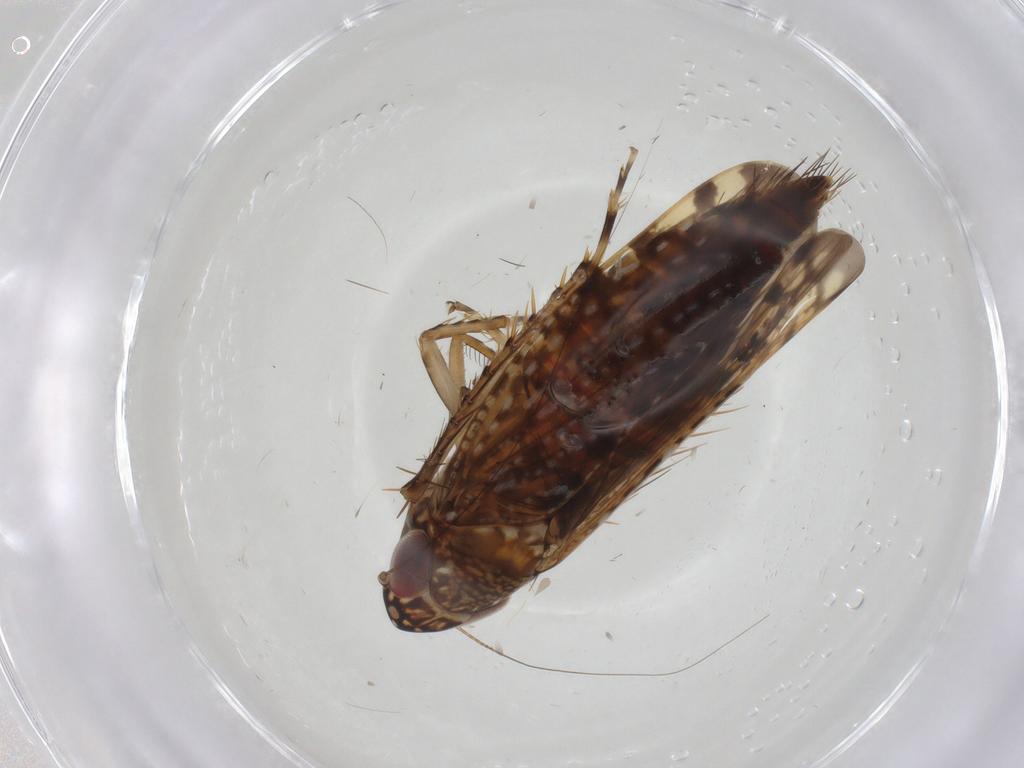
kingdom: Animalia
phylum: Arthropoda
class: Insecta
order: Hemiptera
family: Cicadellidae
